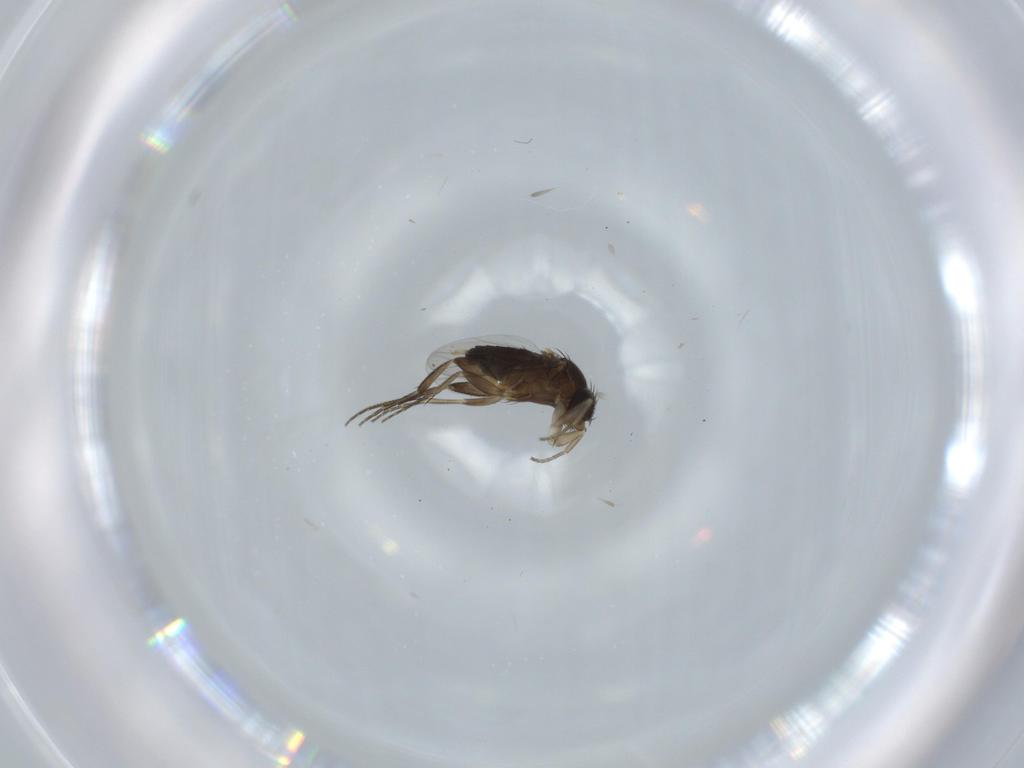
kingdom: Animalia
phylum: Arthropoda
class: Insecta
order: Diptera
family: Phoridae
